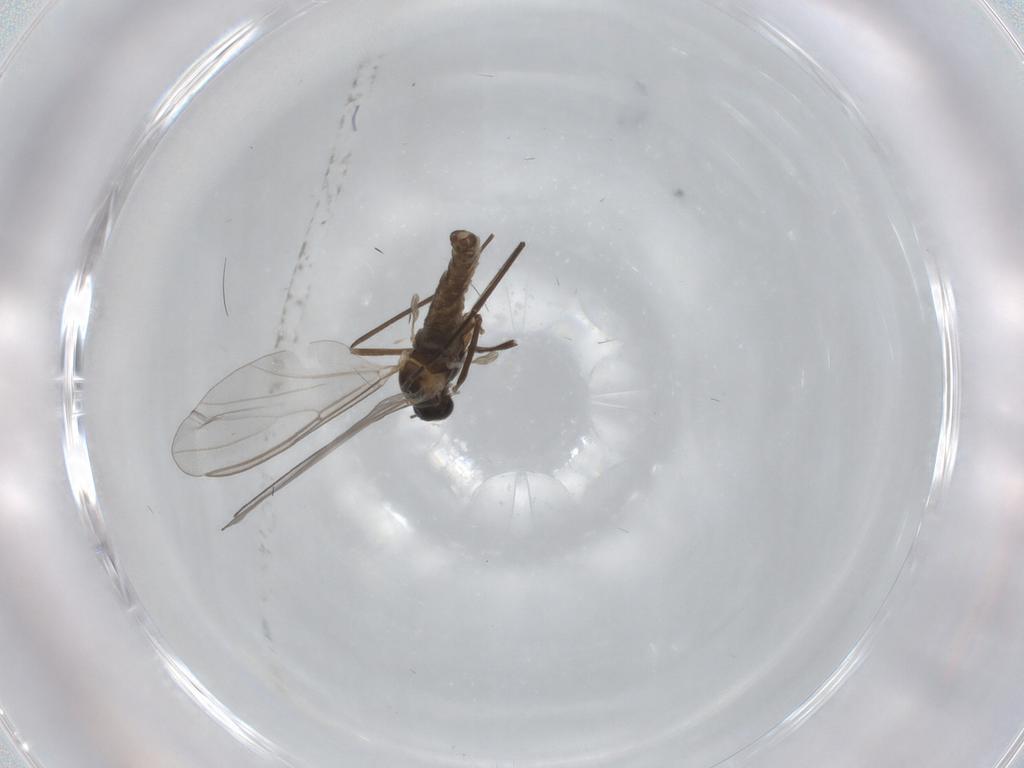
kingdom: Animalia
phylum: Arthropoda
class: Insecta
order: Diptera
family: Cecidomyiidae
